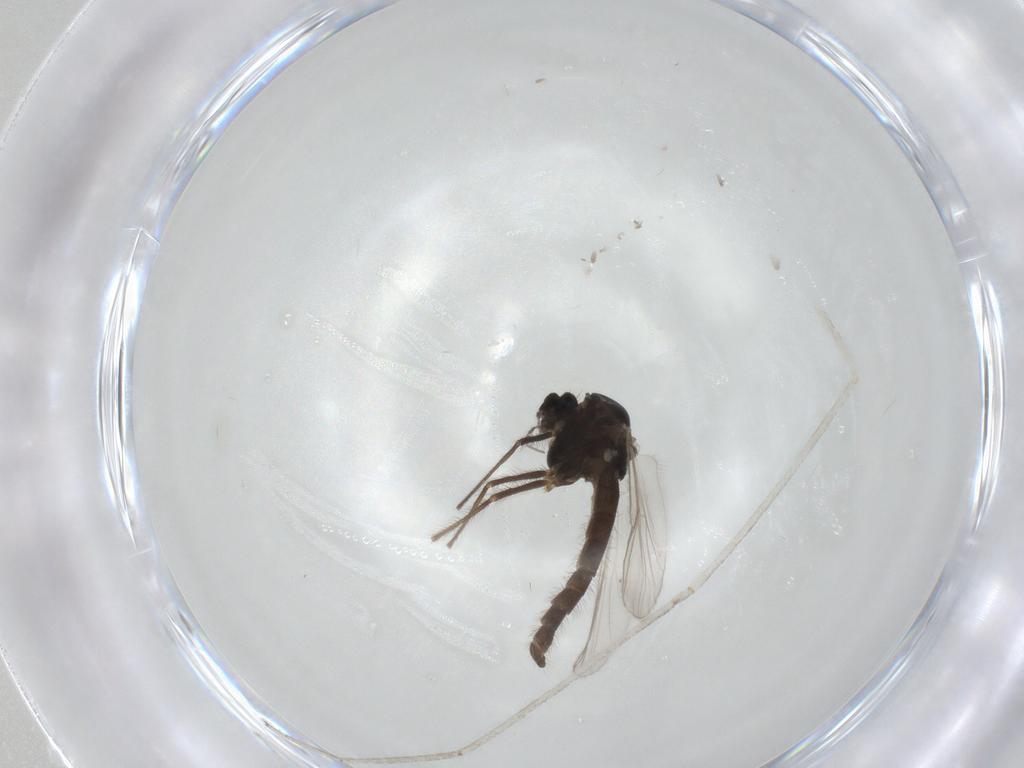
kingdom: Animalia
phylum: Arthropoda
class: Insecta
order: Diptera
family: Chironomidae
